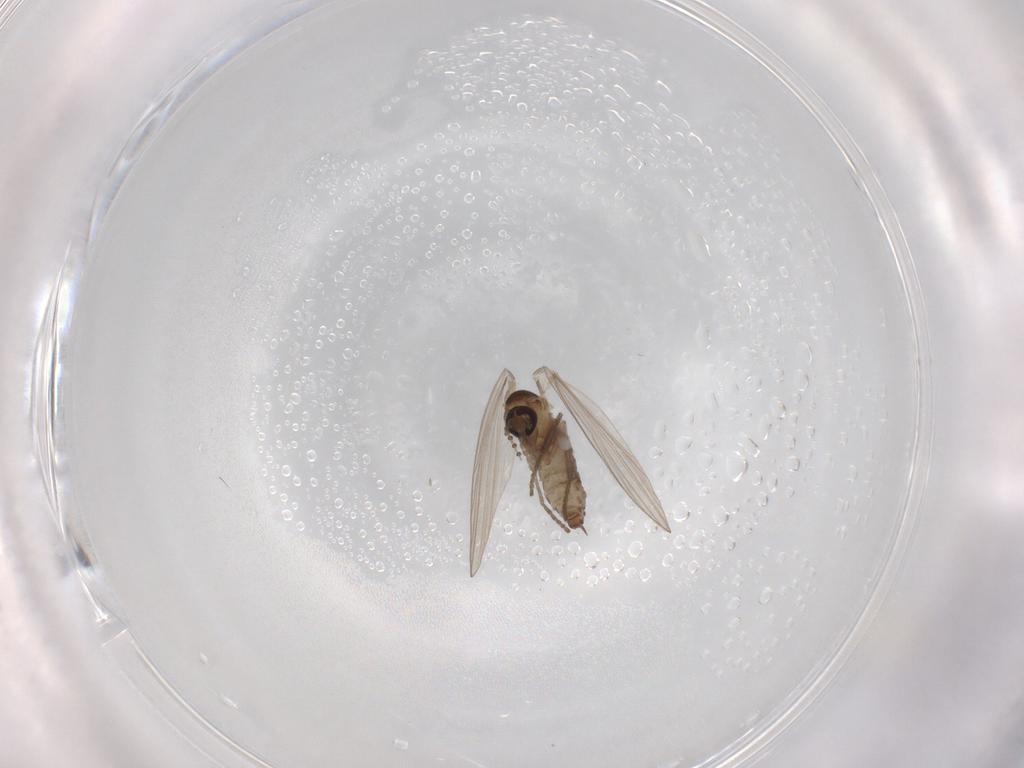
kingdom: Animalia
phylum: Arthropoda
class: Insecta
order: Diptera
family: Psychodidae
